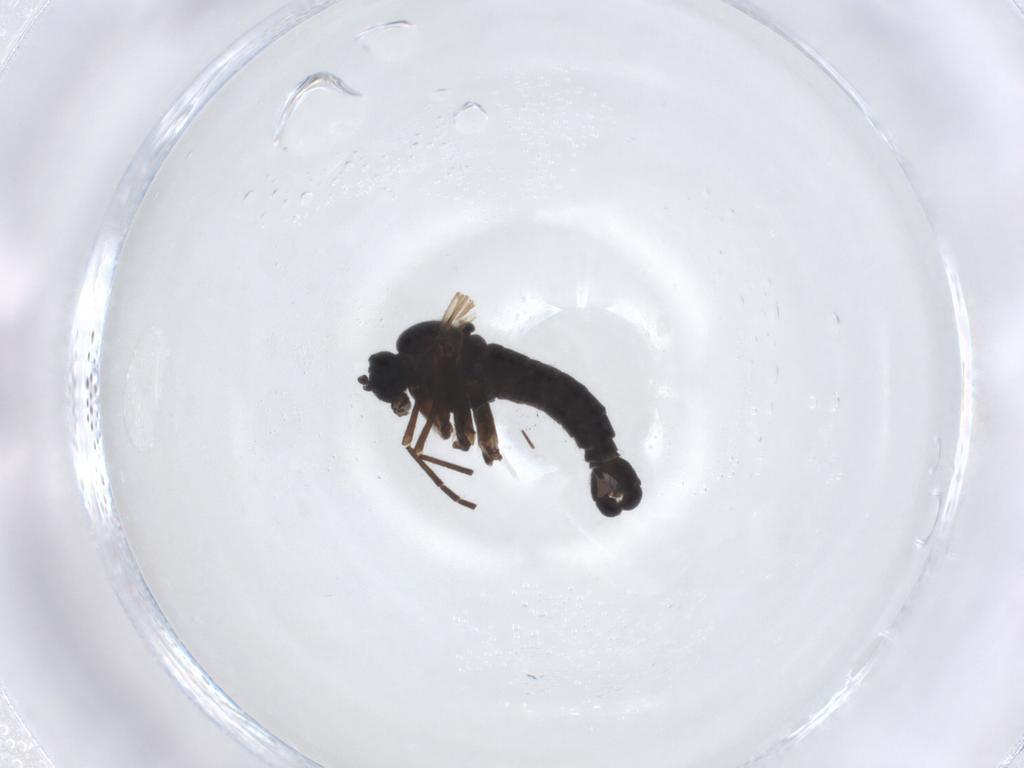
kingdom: Animalia
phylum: Arthropoda
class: Insecta
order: Diptera
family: Sciaridae
